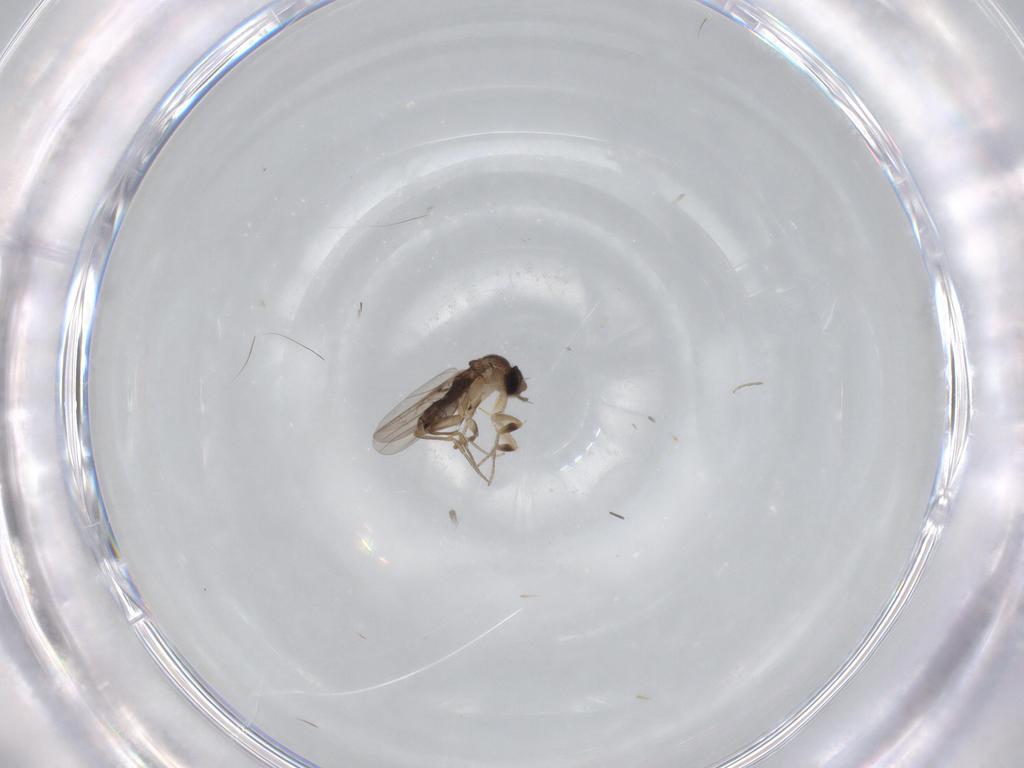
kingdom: Animalia
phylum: Arthropoda
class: Insecta
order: Diptera
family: Phoridae
